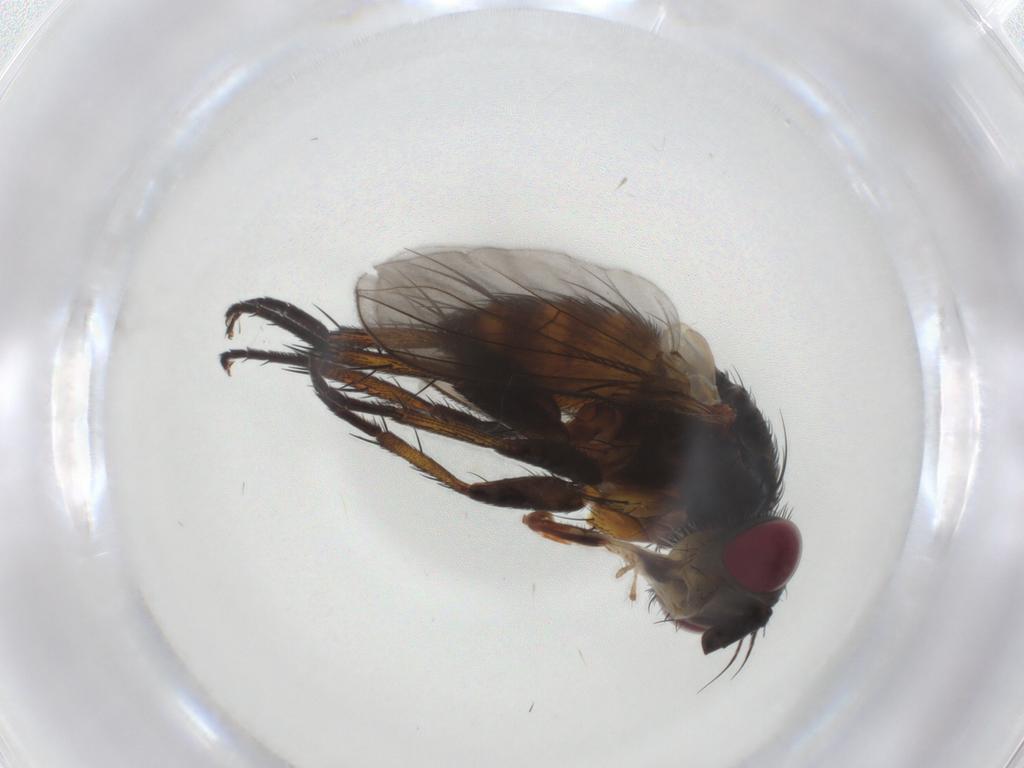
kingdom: Animalia
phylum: Arthropoda
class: Insecta
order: Diptera
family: Tachinidae
